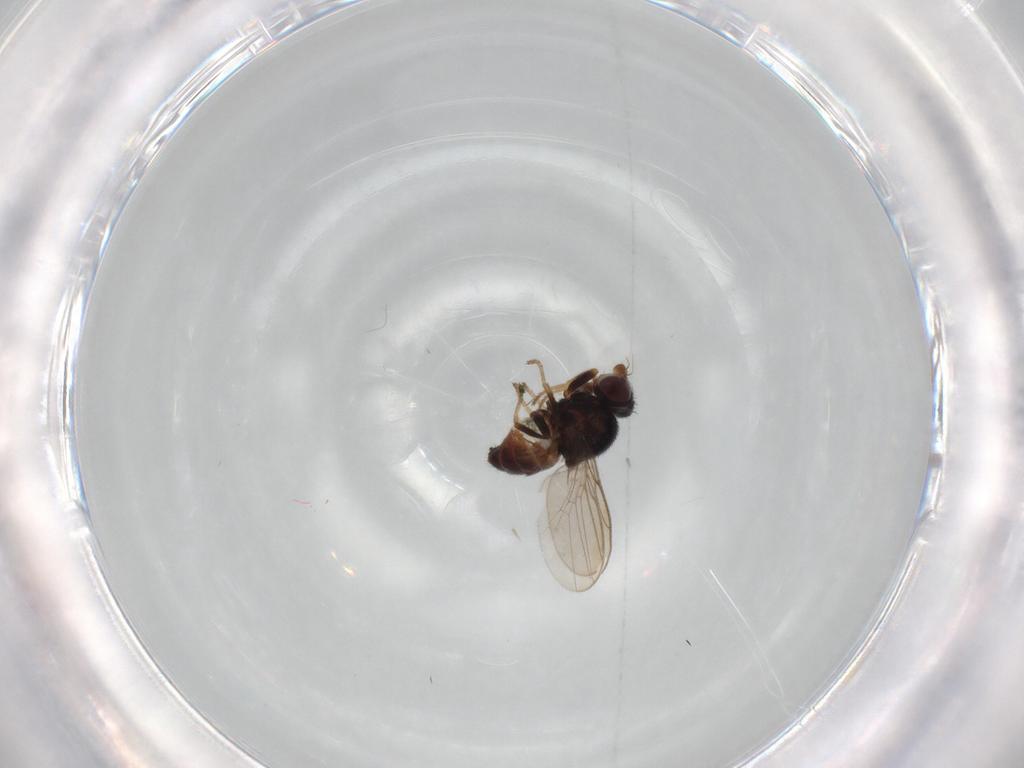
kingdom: Animalia
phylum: Arthropoda
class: Insecta
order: Diptera
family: Chloropidae
